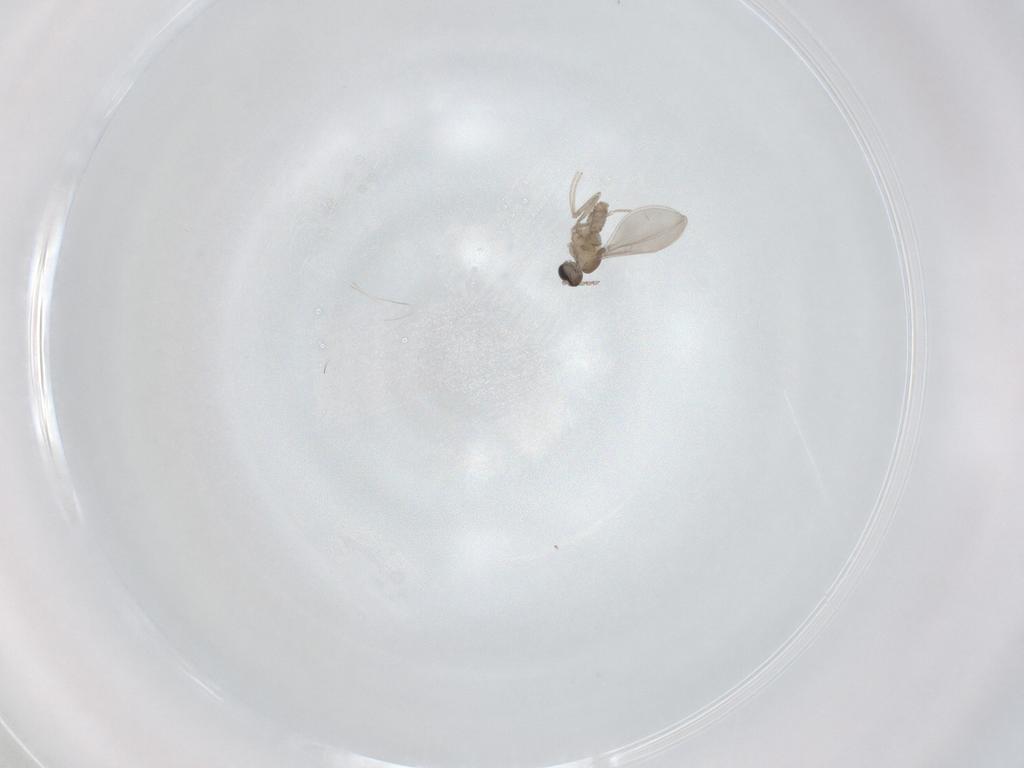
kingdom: Animalia
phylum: Arthropoda
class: Insecta
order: Diptera
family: Chironomidae
